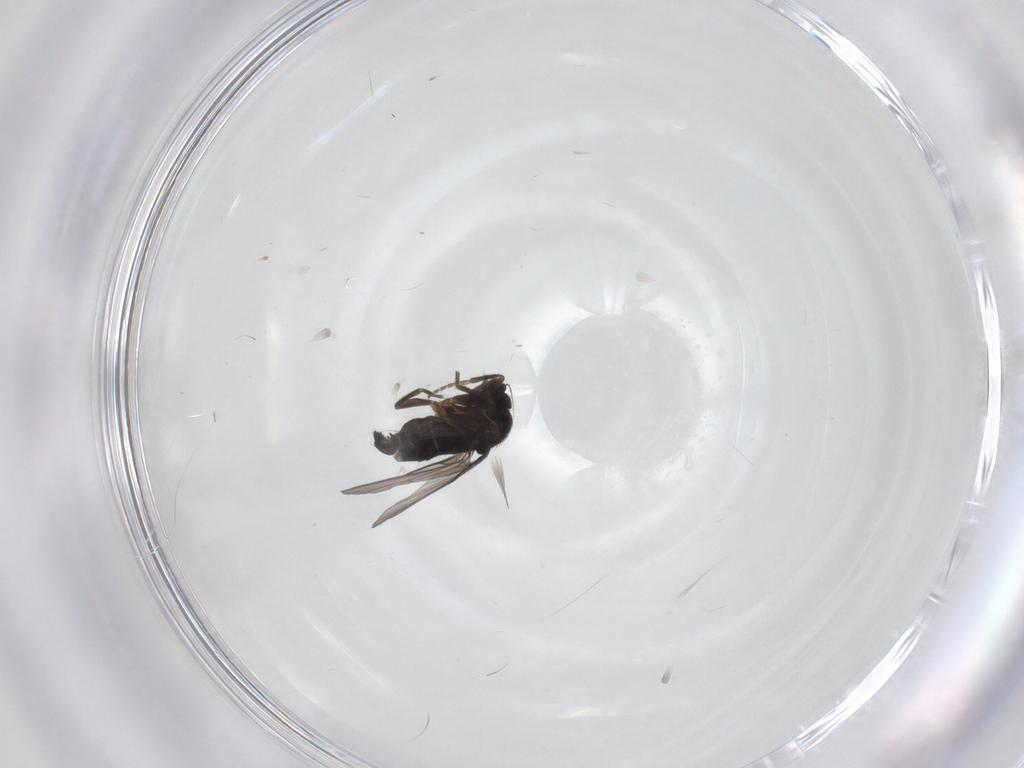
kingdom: Animalia
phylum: Arthropoda
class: Insecta
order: Diptera
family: Phoridae
